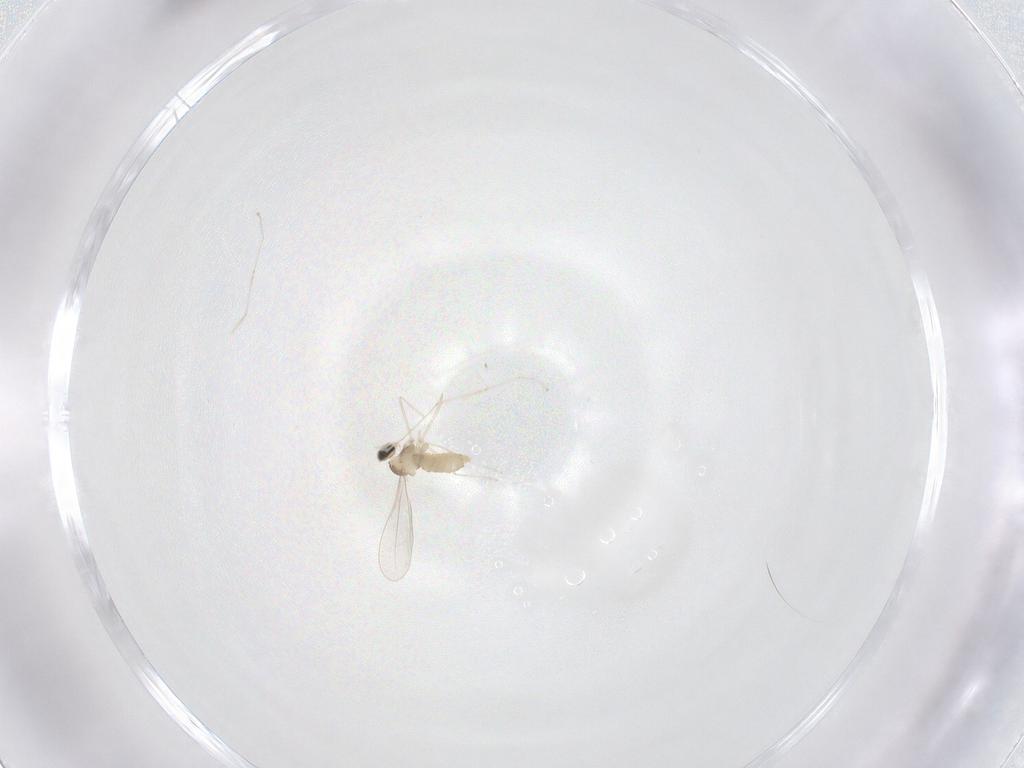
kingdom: Animalia
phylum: Arthropoda
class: Insecta
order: Diptera
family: Cecidomyiidae
